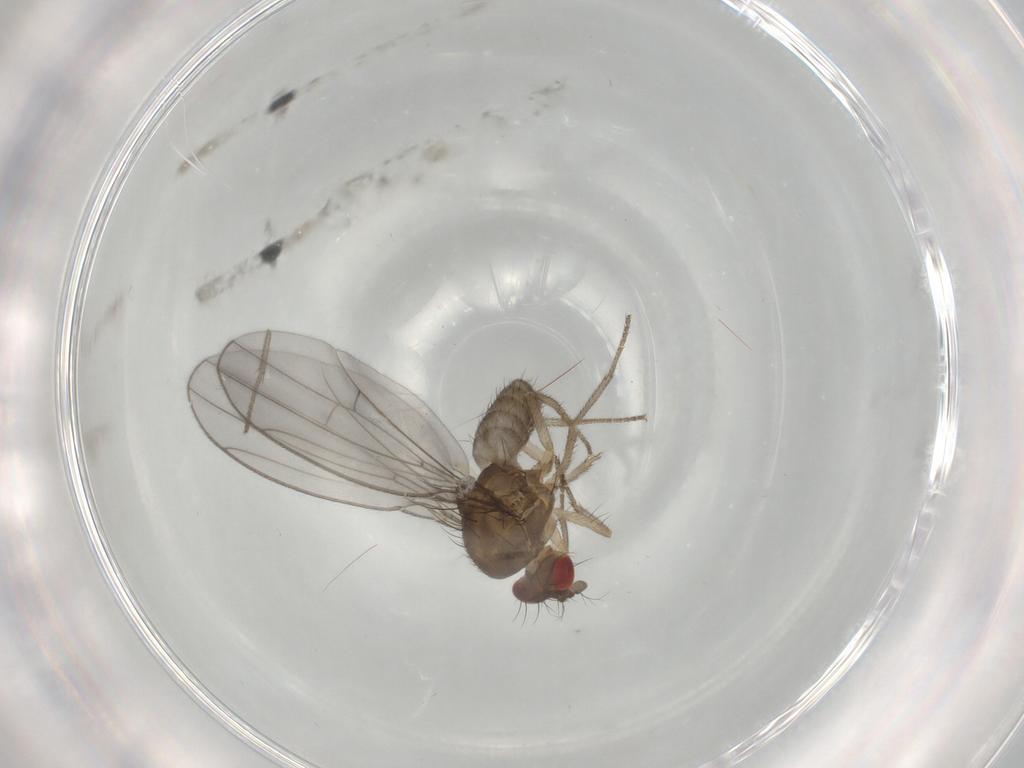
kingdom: Animalia
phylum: Arthropoda
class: Insecta
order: Diptera
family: Drosophilidae
